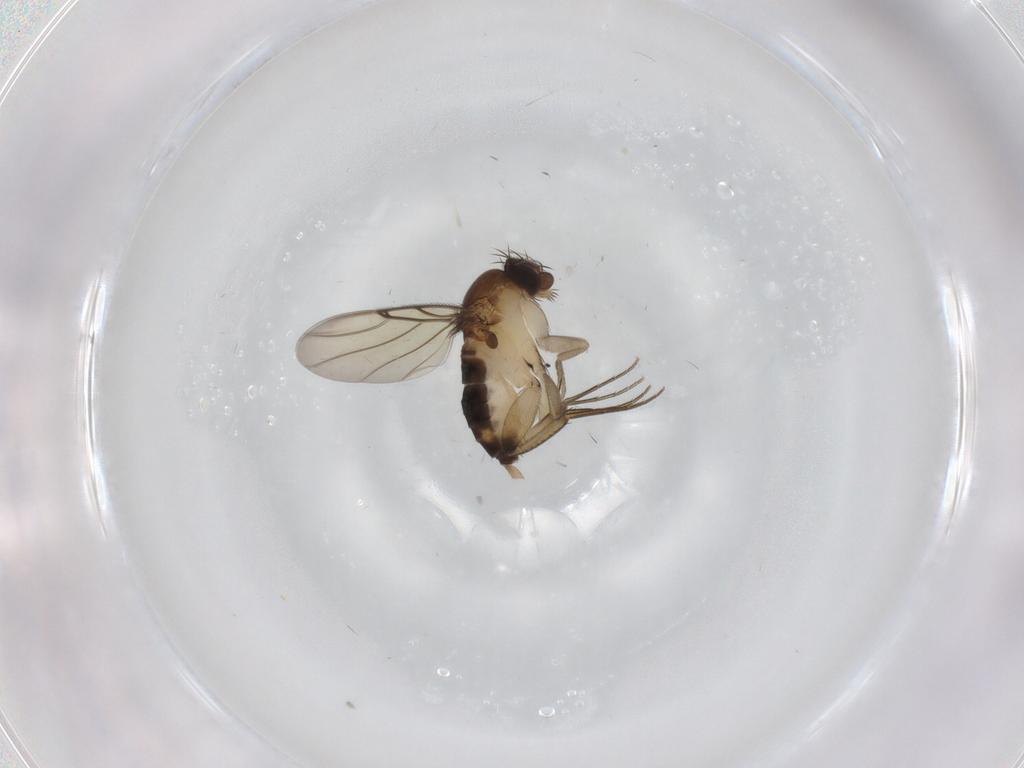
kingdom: Animalia
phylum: Arthropoda
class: Insecta
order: Diptera
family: Phoridae
